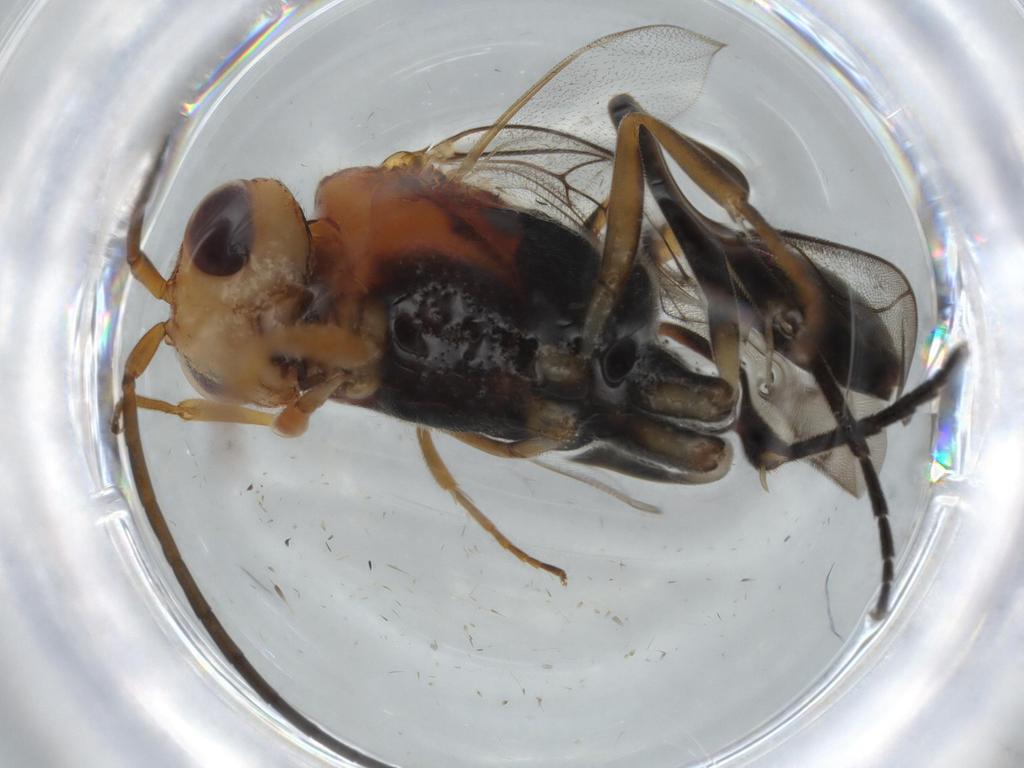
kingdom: Animalia
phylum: Arthropoda
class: Insecta
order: Hymenoptera
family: Evaniidae
